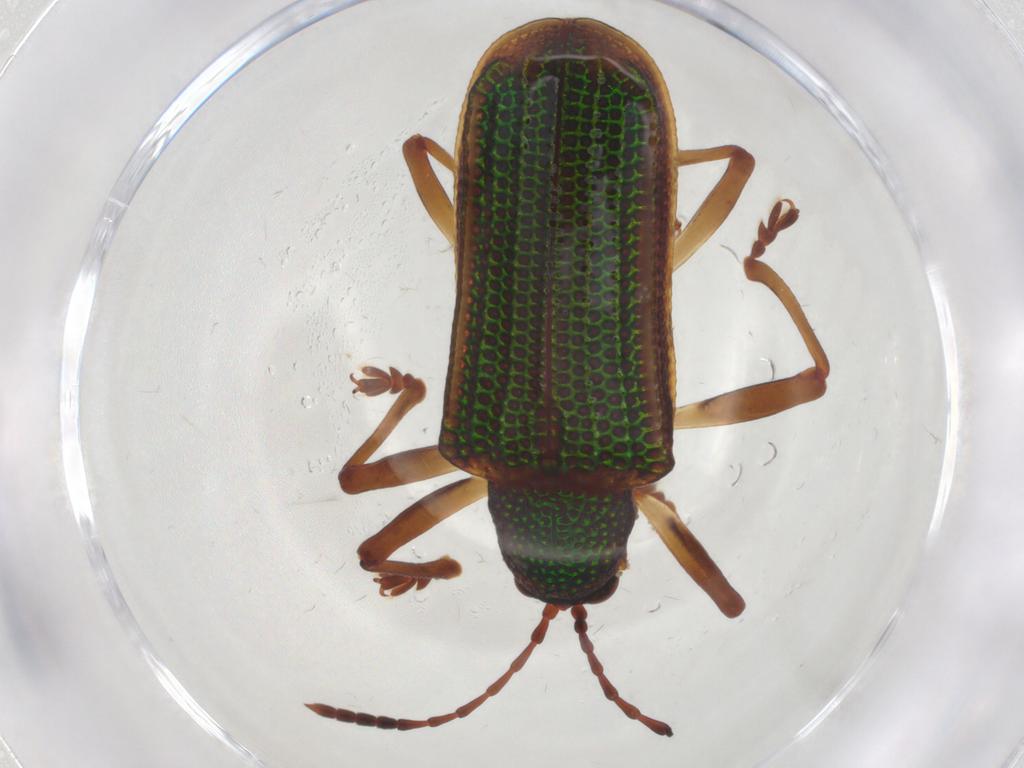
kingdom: Animalia
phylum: Arthropoda
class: Insecta
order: Coleoptera
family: Chrysomelidae
